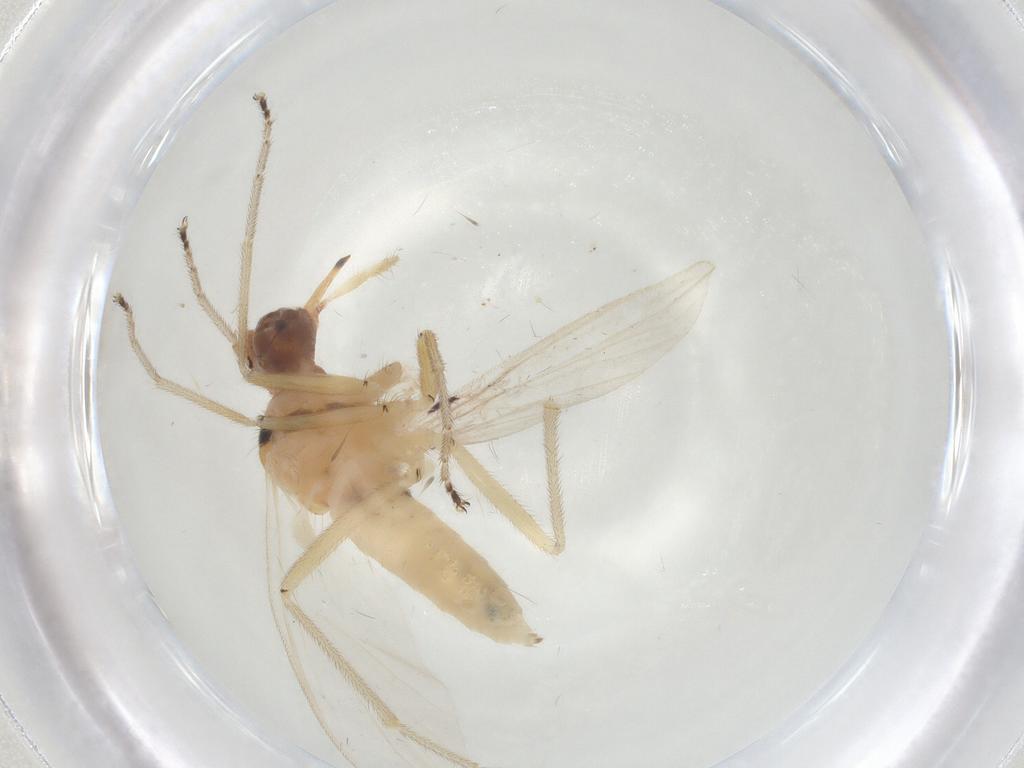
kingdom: Animalia
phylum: Arthropoda
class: Insecta
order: Diptera
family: Empididae
